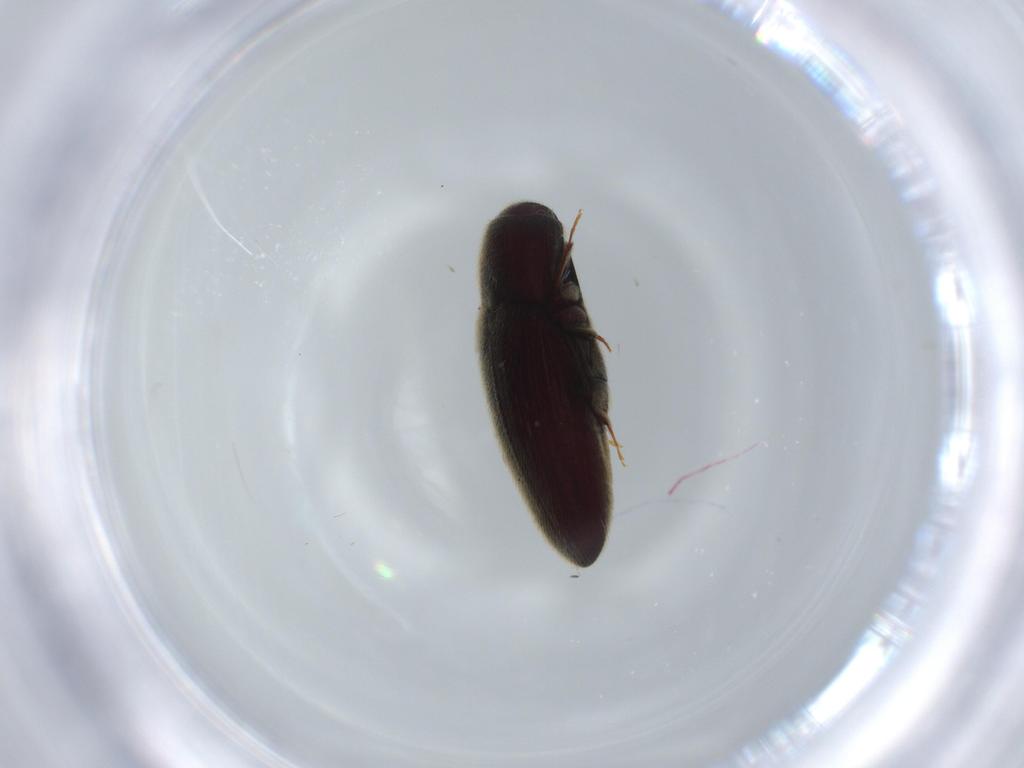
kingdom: Animalia
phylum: Arthropoda
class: Insecta
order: Coleoptera
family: Throscidae
